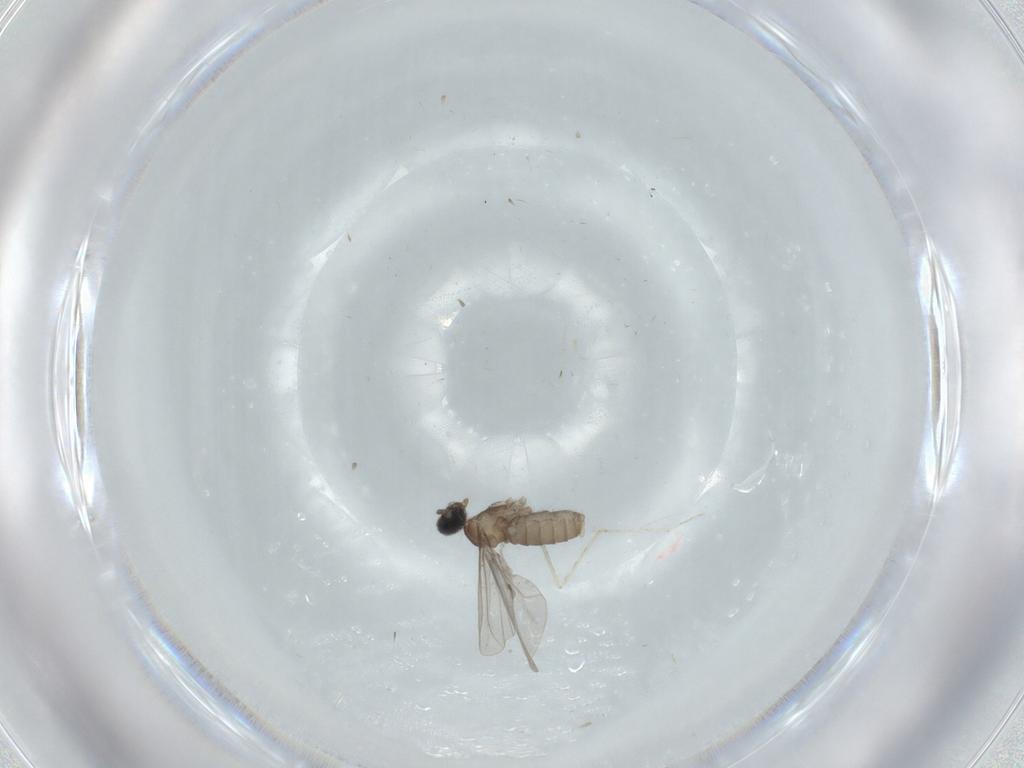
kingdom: Animalia
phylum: Arthropoda
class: Insecta
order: Diptera
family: Cecidomyiidae
